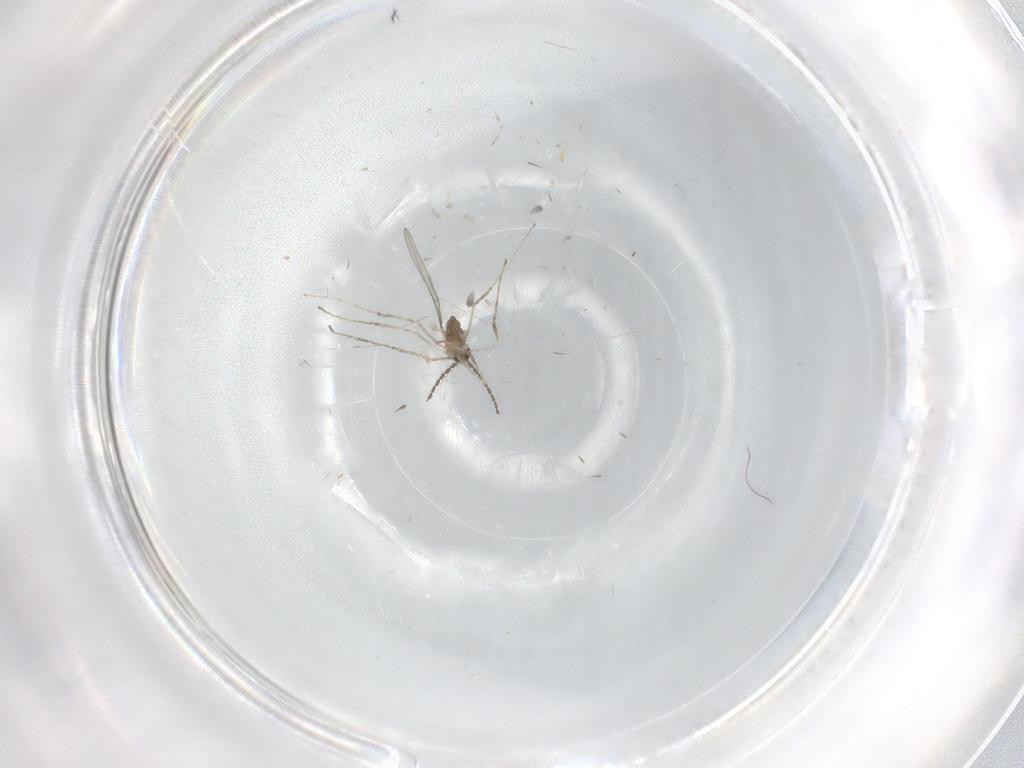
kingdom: Animalia
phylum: Arthropoda
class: Insecta
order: Diptera
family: Cecidomyiidae
